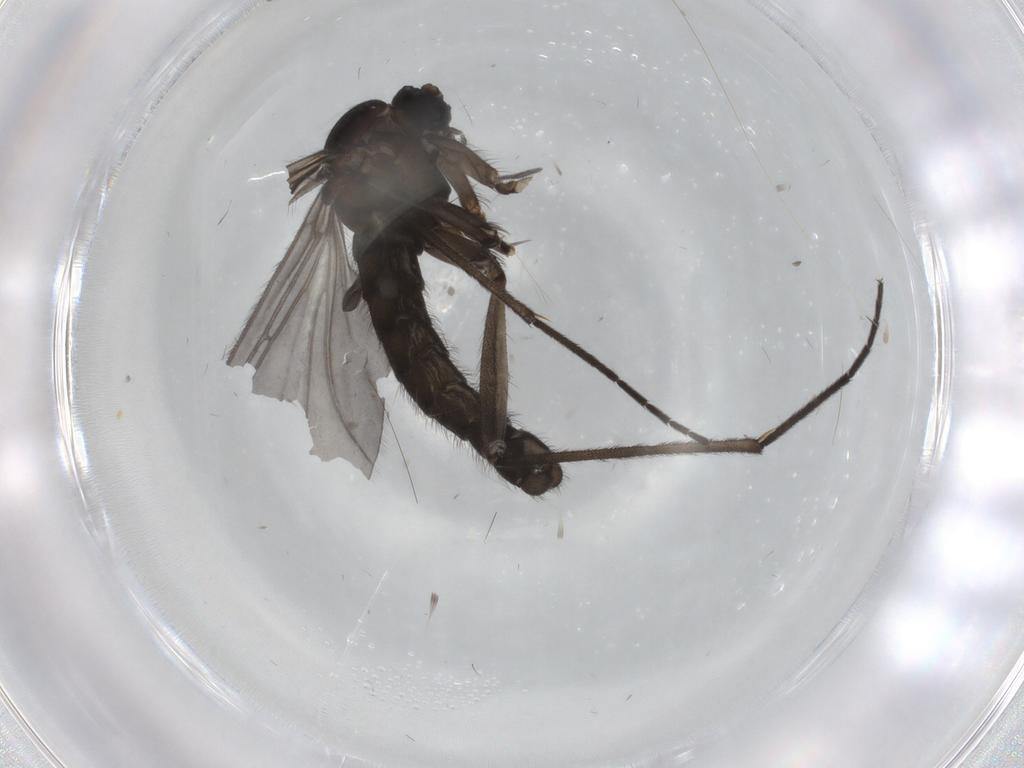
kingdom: Animalia
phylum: Arthropoda
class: Insecta
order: Diptera
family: Sciaridae
